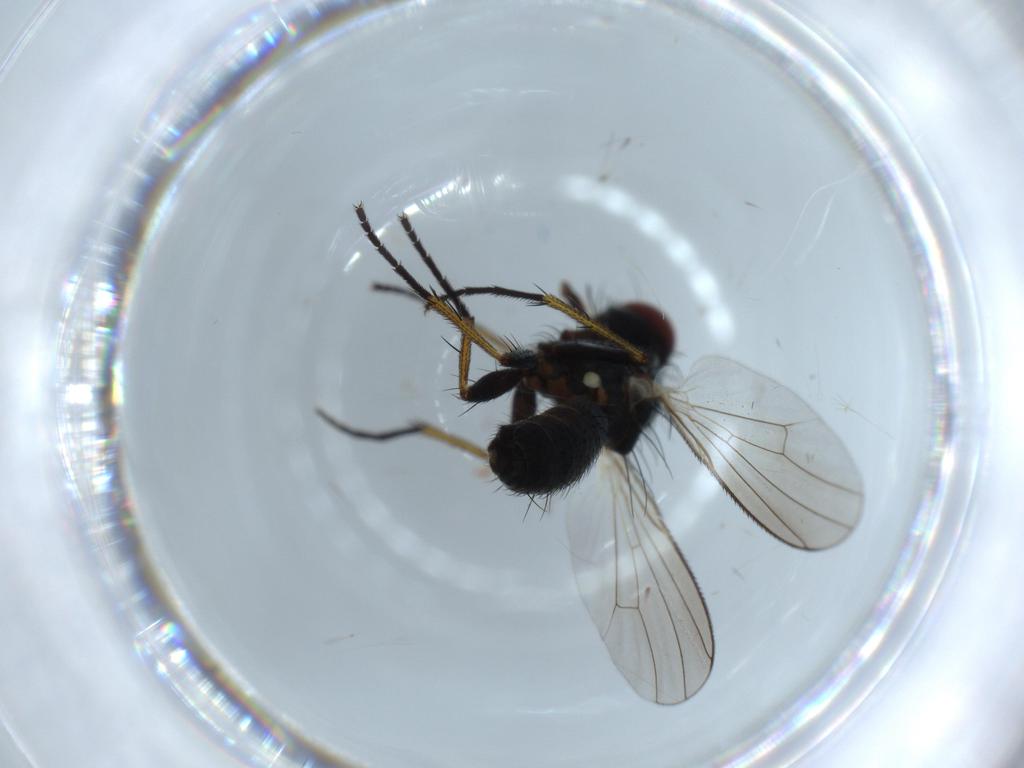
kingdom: Animalia
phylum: Arthropoda
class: Insecta
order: Diptera
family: Muscidae
